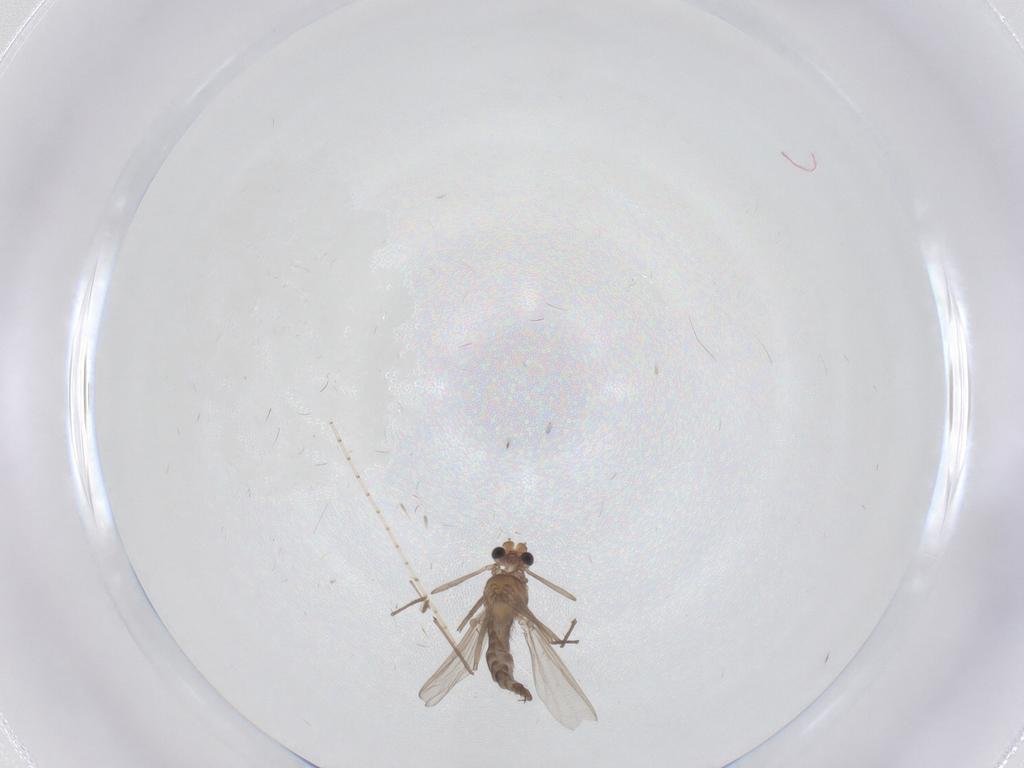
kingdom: Animalia
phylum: Arthropoda
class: Insecta
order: Diptera
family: Chironomidae
